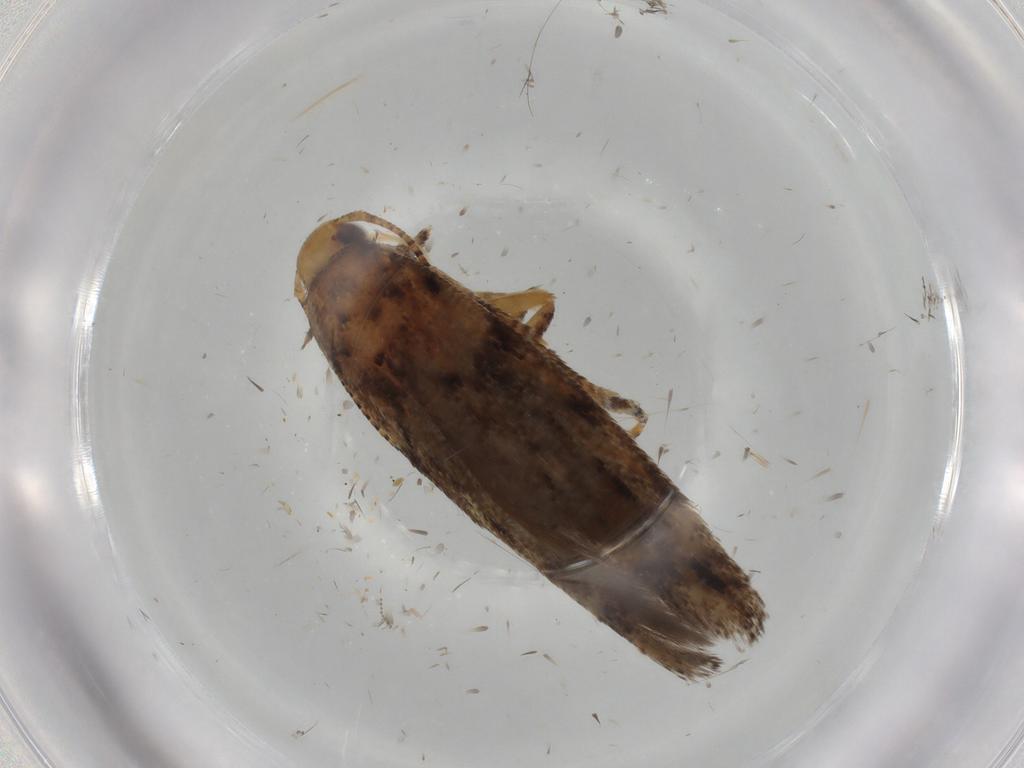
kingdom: Animalia
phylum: Arthropoda
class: Insecta
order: Lepidoptera
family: Gelechiidae
